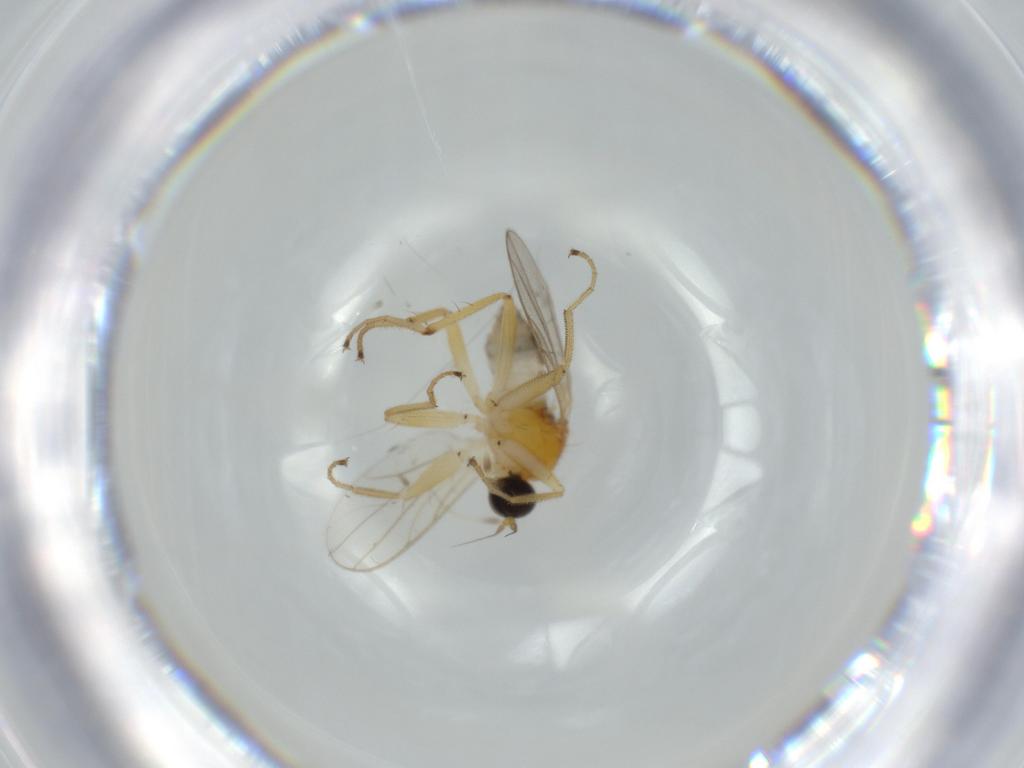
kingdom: Animalia
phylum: Arthropoda
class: Insecta
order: Diptera
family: Hybotidae
